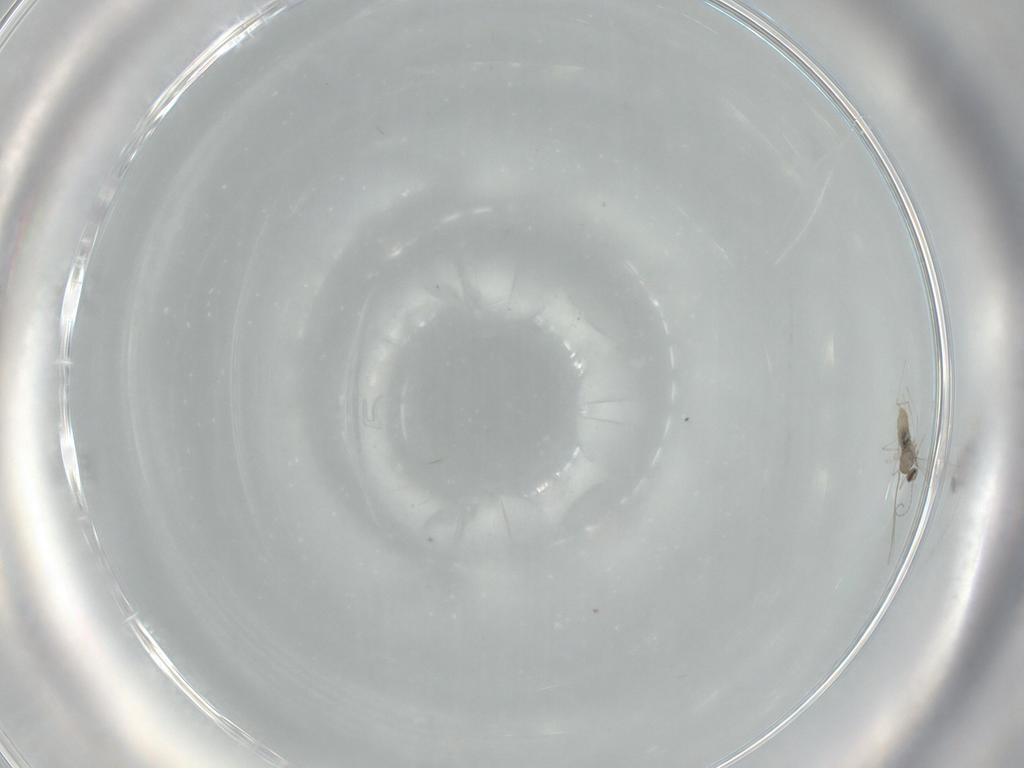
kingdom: Animalia
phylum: Arthropoda
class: Insecta
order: Diptera
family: Cecidomyiidae
